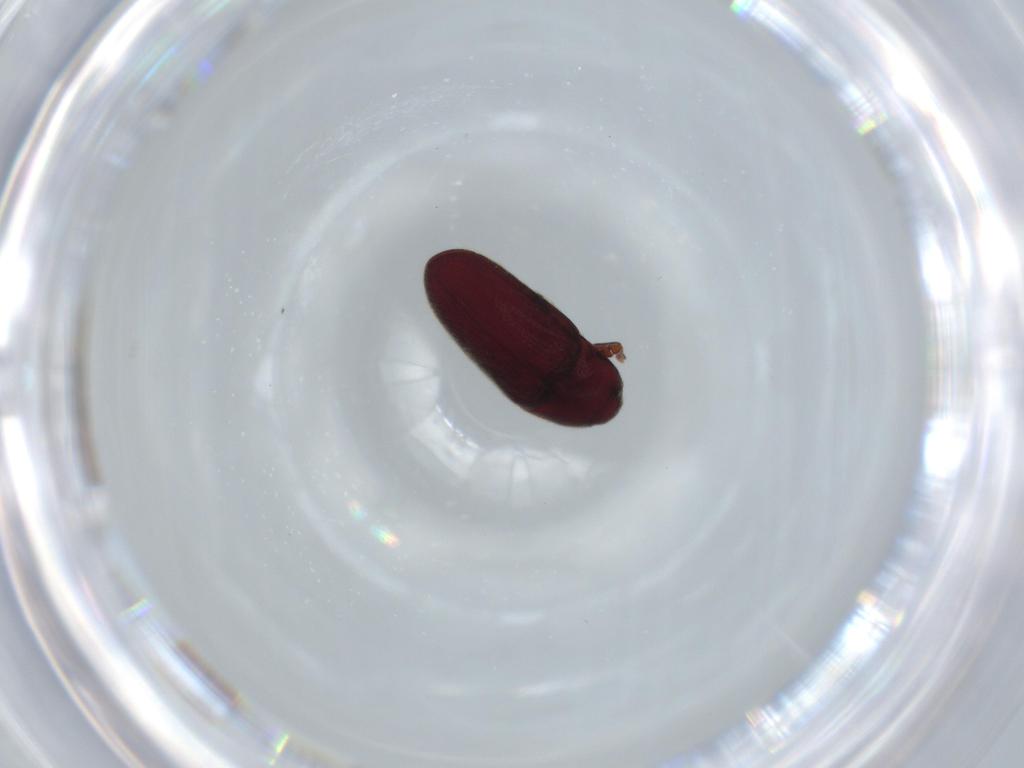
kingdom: Animalia
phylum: Arthropoda
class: Insecta
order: Coleoptera
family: Throscidae
